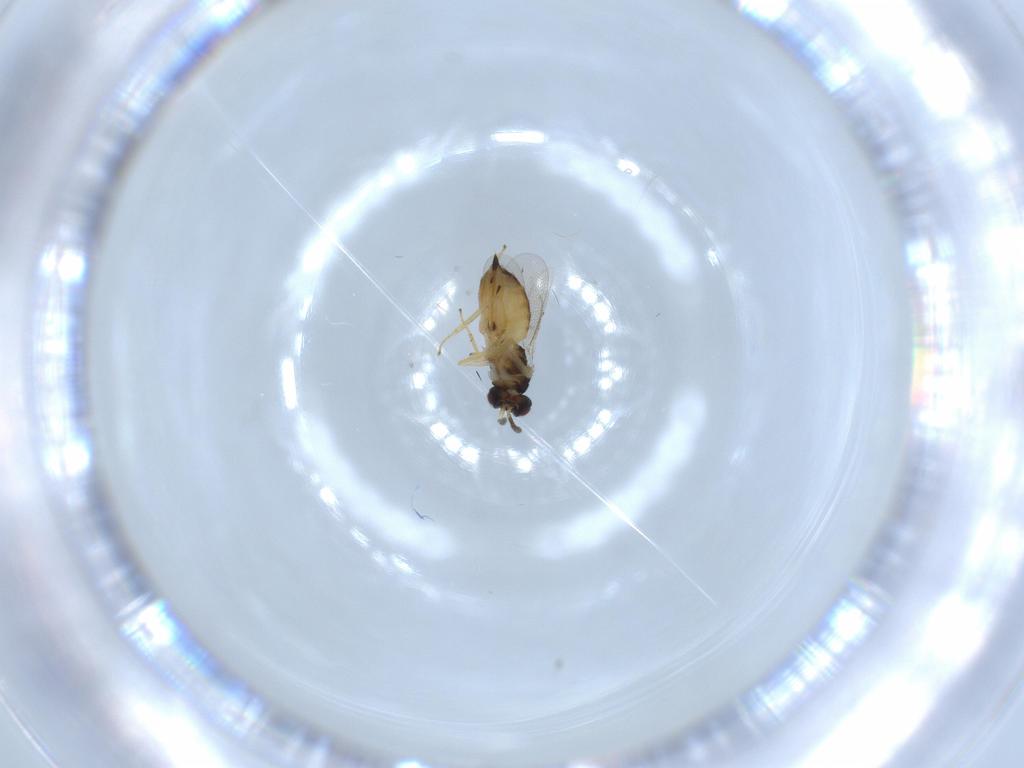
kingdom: Animalia
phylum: Arthropoda
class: Insecta
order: Hymenoptera
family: Eulophidae
